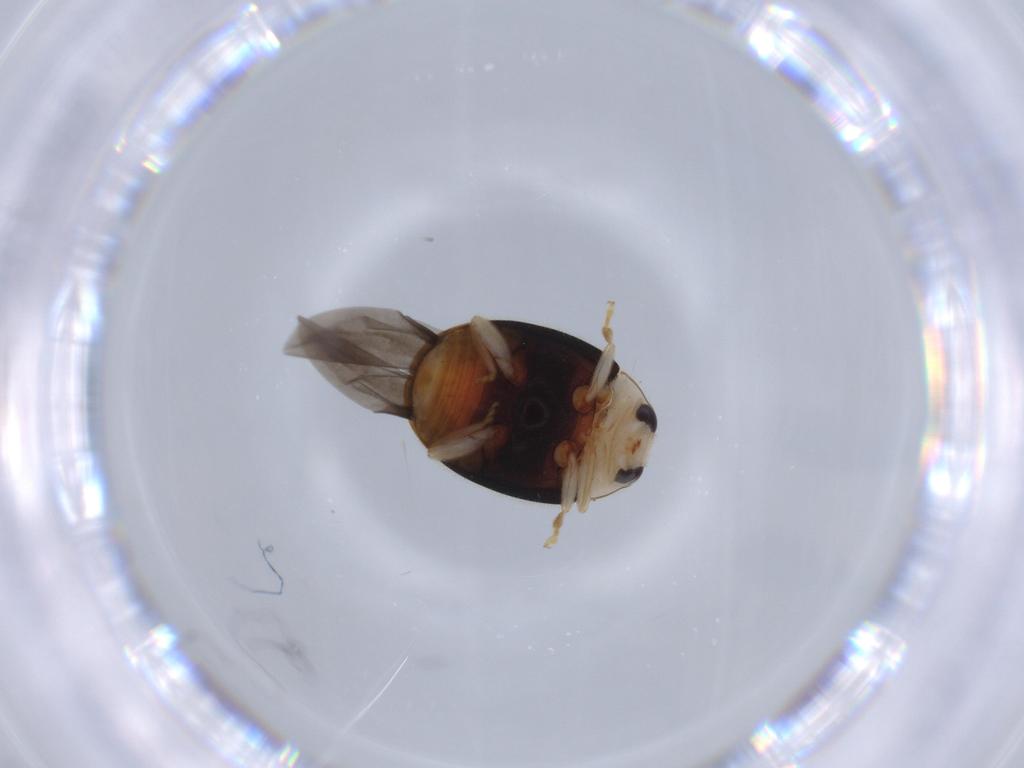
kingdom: Animalia
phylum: Arthropoda
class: Insecta
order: Coleoptera
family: Coccinellidae
